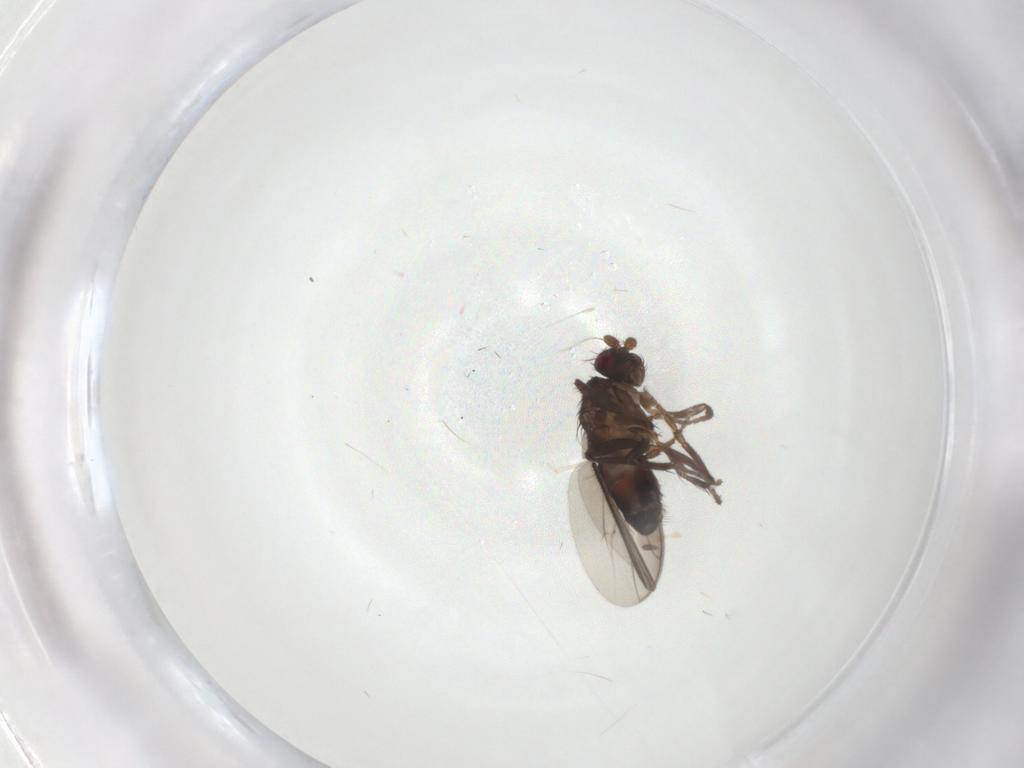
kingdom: Animalia
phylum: Arthropoda
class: Insecta
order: Diptera
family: Sphaeroceridae
